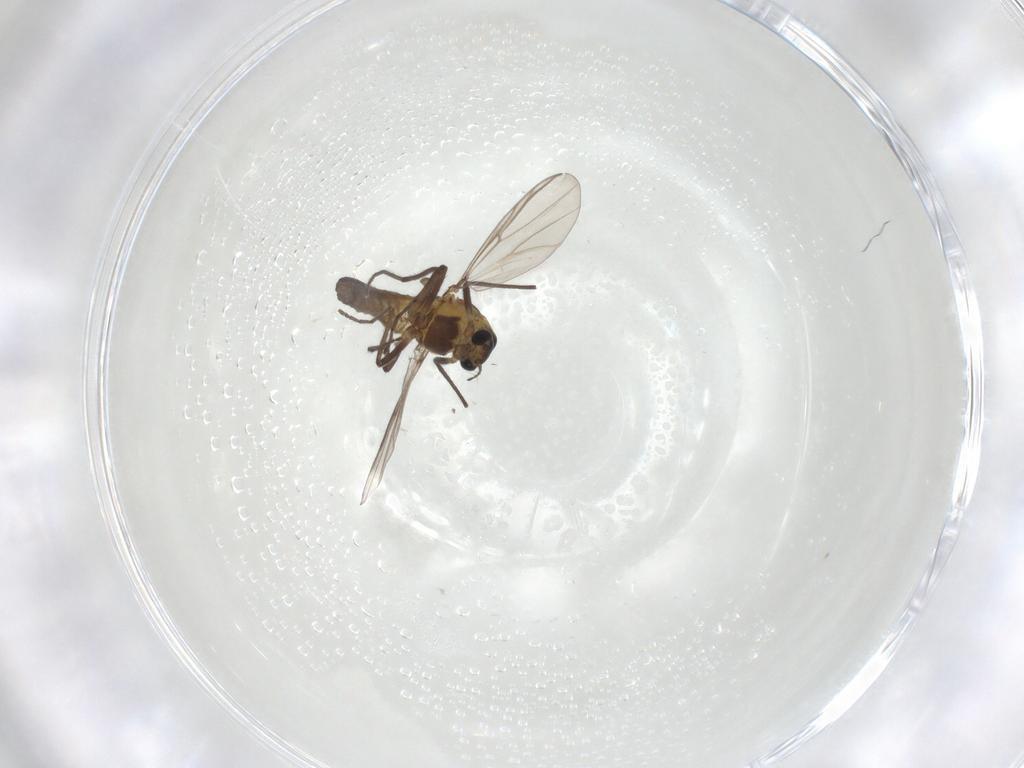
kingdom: Animalia
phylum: Arthropoda
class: Insecta
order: Diptera
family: Chironomidae
